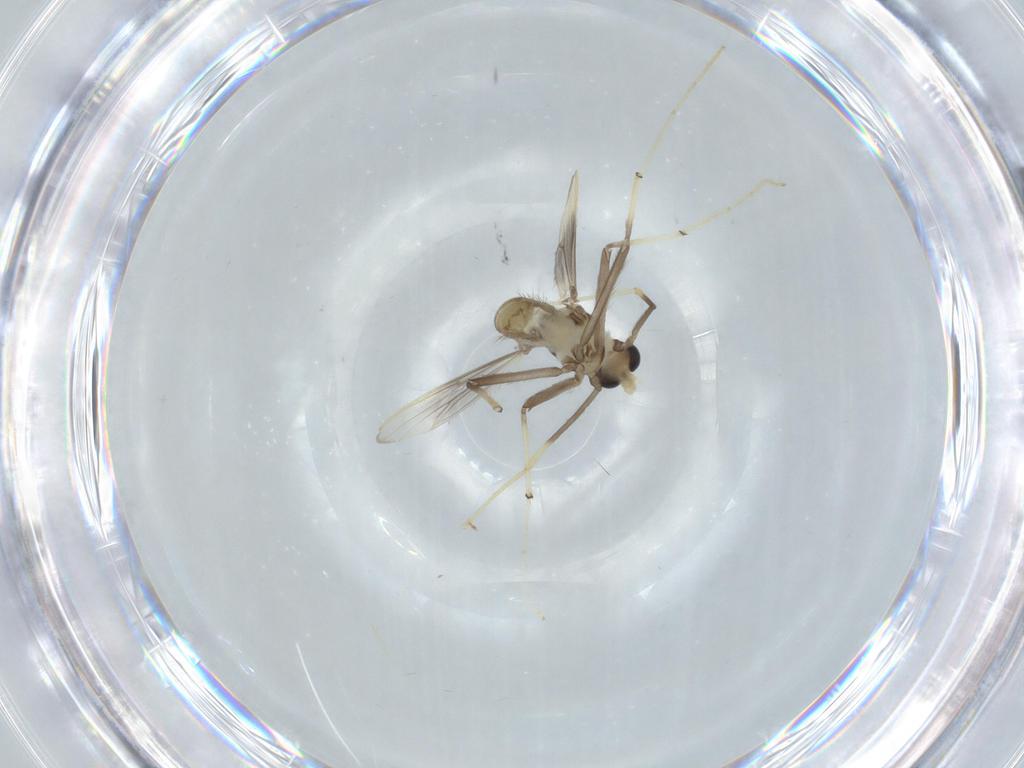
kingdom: Animalia
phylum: Arthropoda
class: Insecta
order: Diptera
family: Chironomidae
